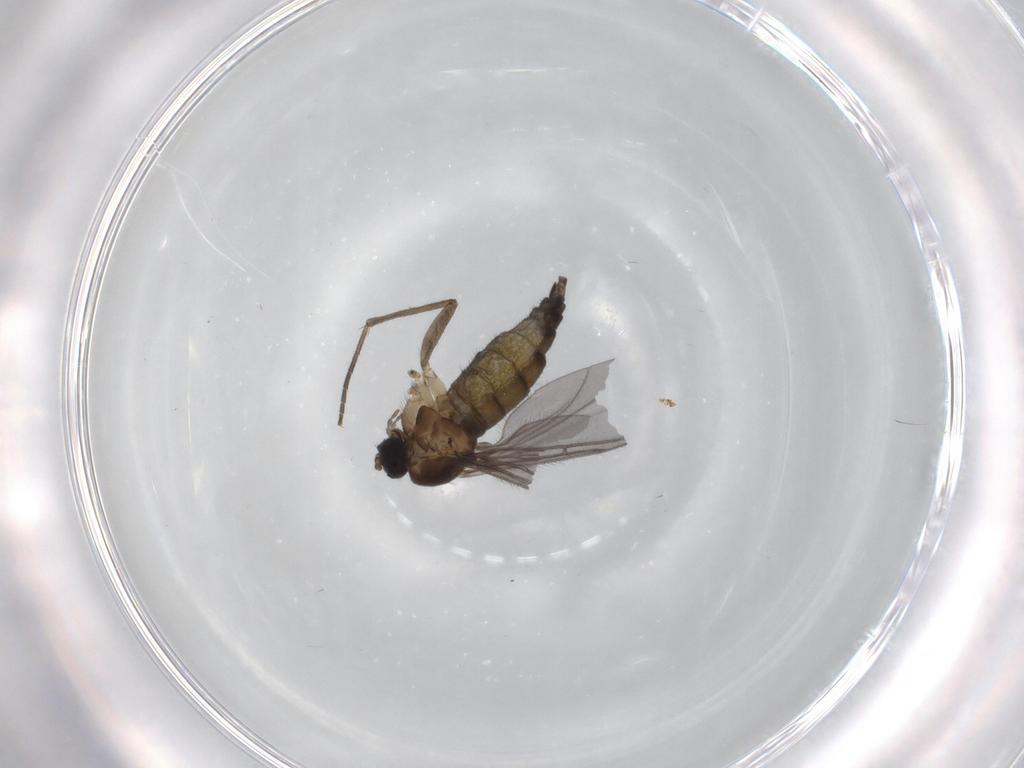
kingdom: Animalia
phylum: Arthropoda
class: Insecta
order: Diptera
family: Sciaridae
